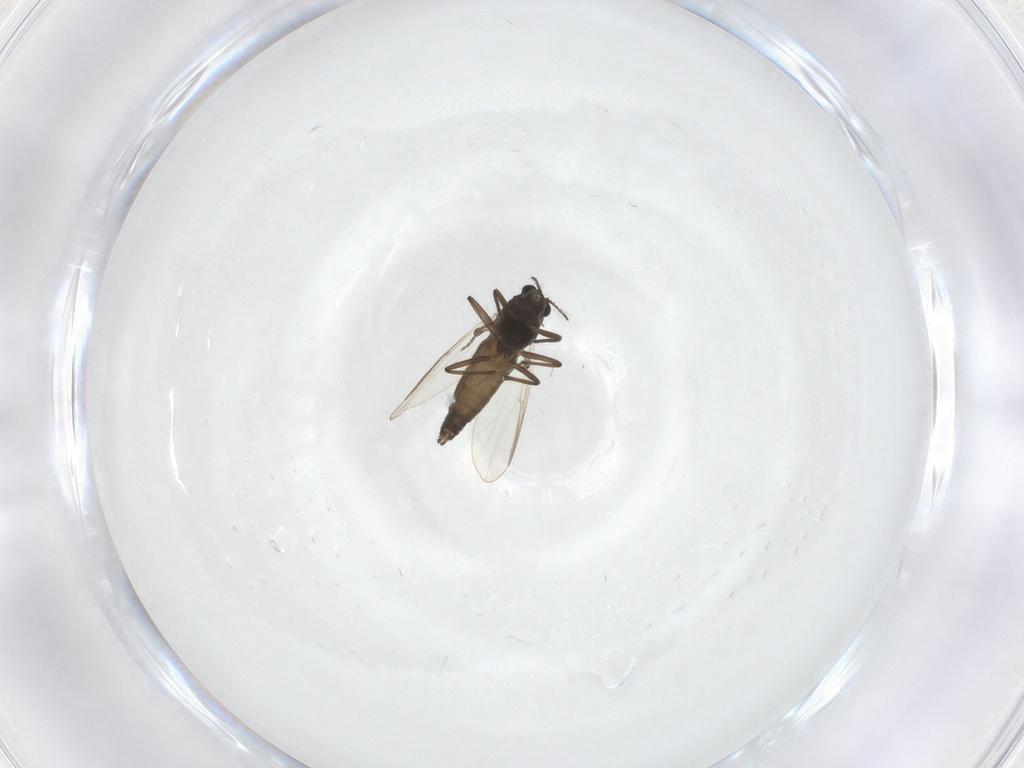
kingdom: Animalia
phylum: Arthropoda
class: Insecta
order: Diptera
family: Chironomidae
